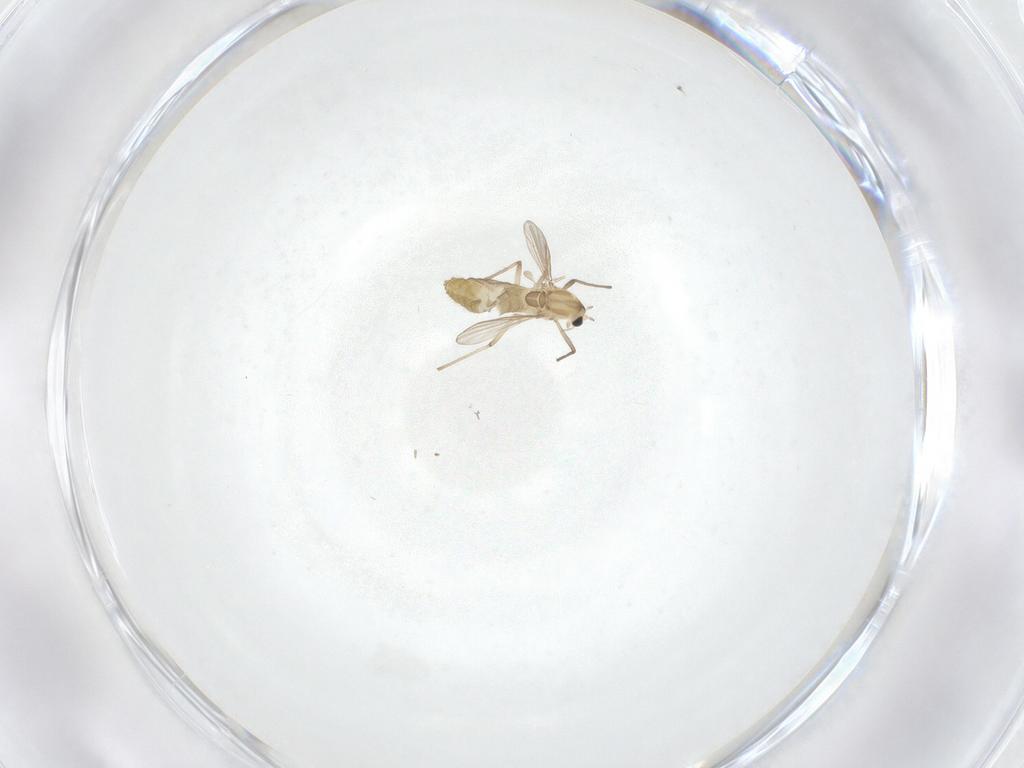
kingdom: Animalia
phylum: Arthropoda
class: Insecta
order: Diptera
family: Chironomidae
